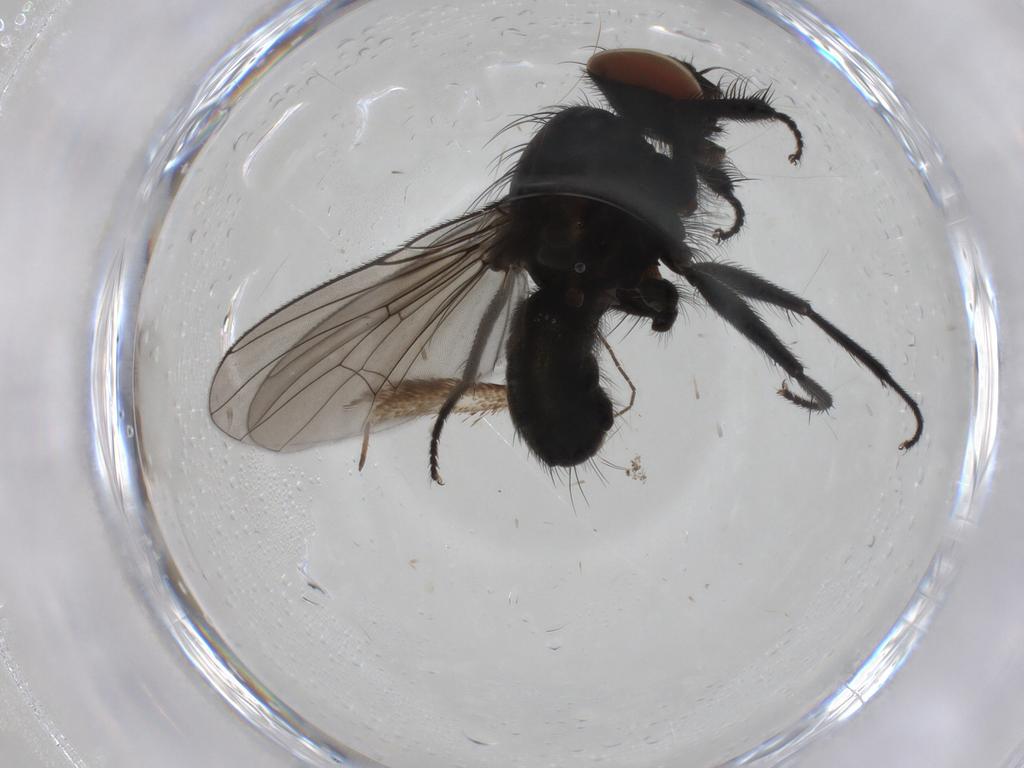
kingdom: Animalia
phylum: Arthropoda
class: Insecta
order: Diptera
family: Muscidae
